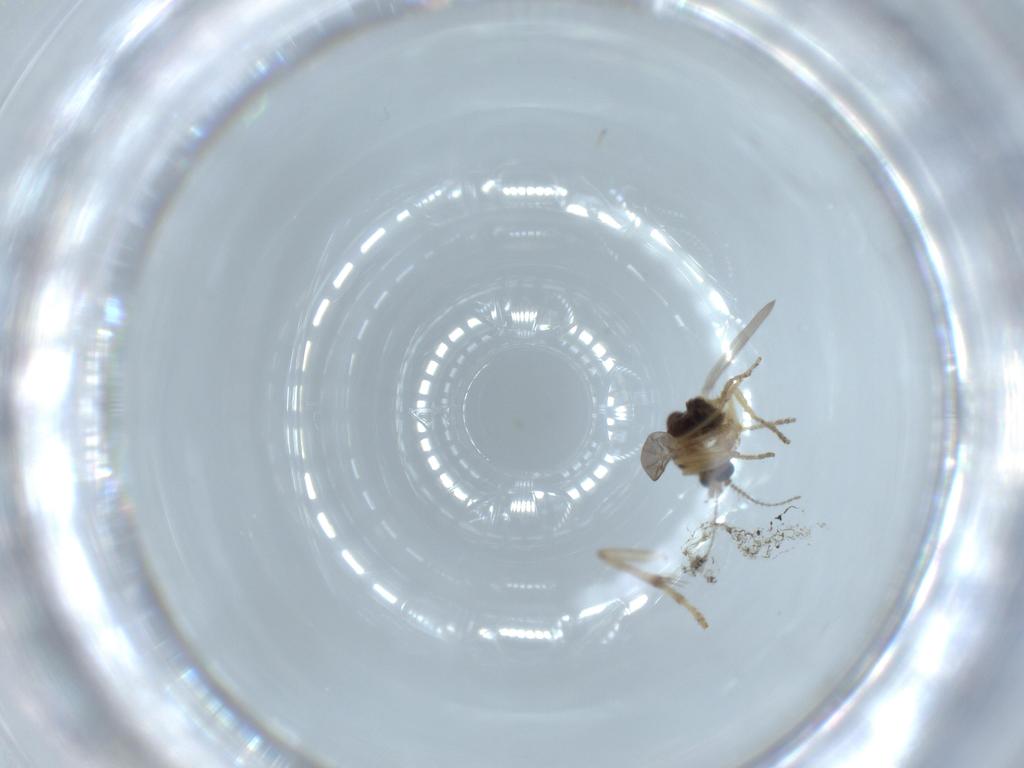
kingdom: Animalia
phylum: Arthropoda
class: Insecta
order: Diptera
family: Ceratopogonidae
